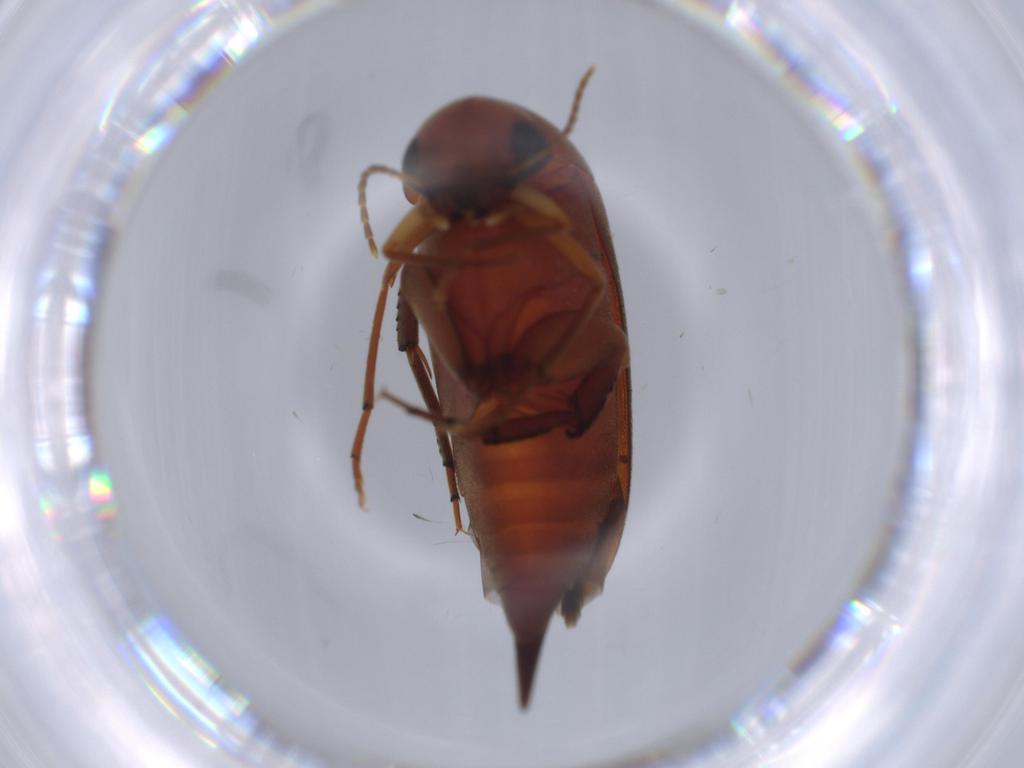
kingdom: Animalia
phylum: Arthropoda
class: Insecta
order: Coleoptera
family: Chrysomelidae
